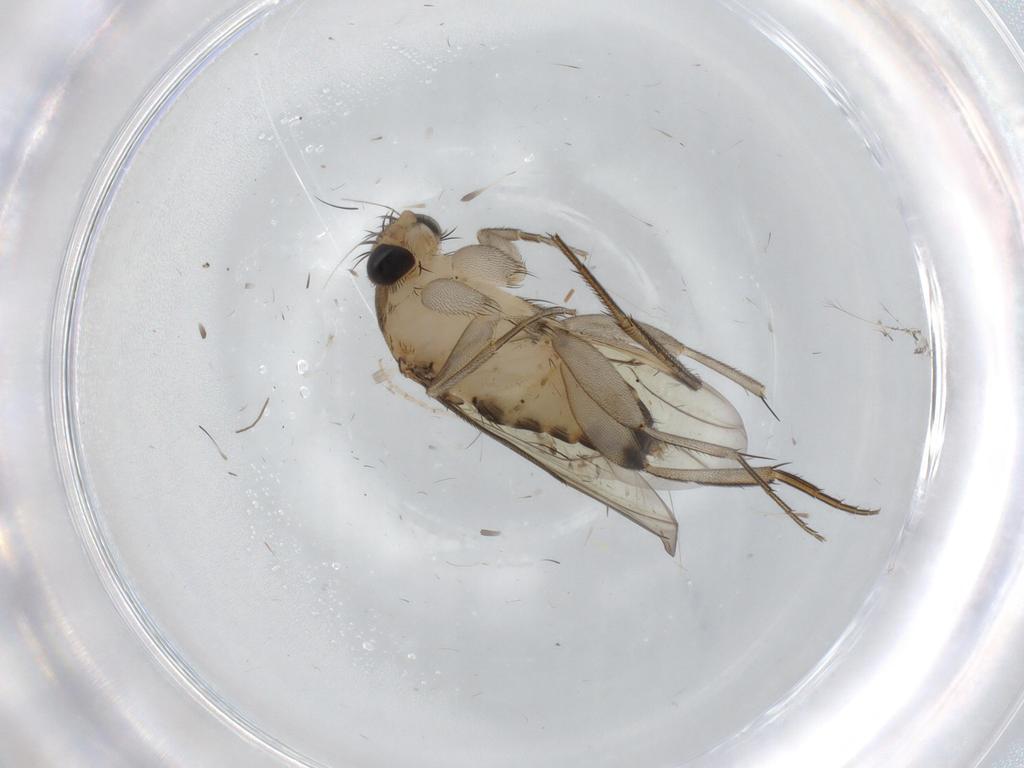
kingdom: Animalia
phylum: Arthropoda
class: Insecta
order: Diptera
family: Phoridae
